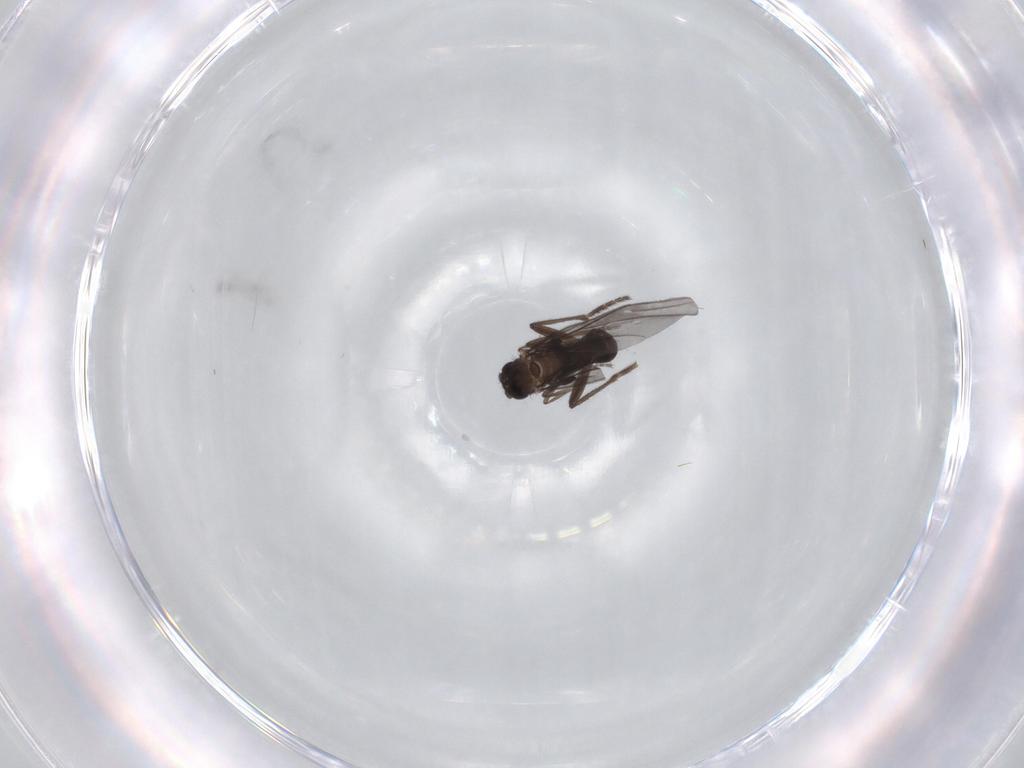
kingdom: Animalia
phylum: Arthropoda
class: Insecta
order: Diptera
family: Phoridae
